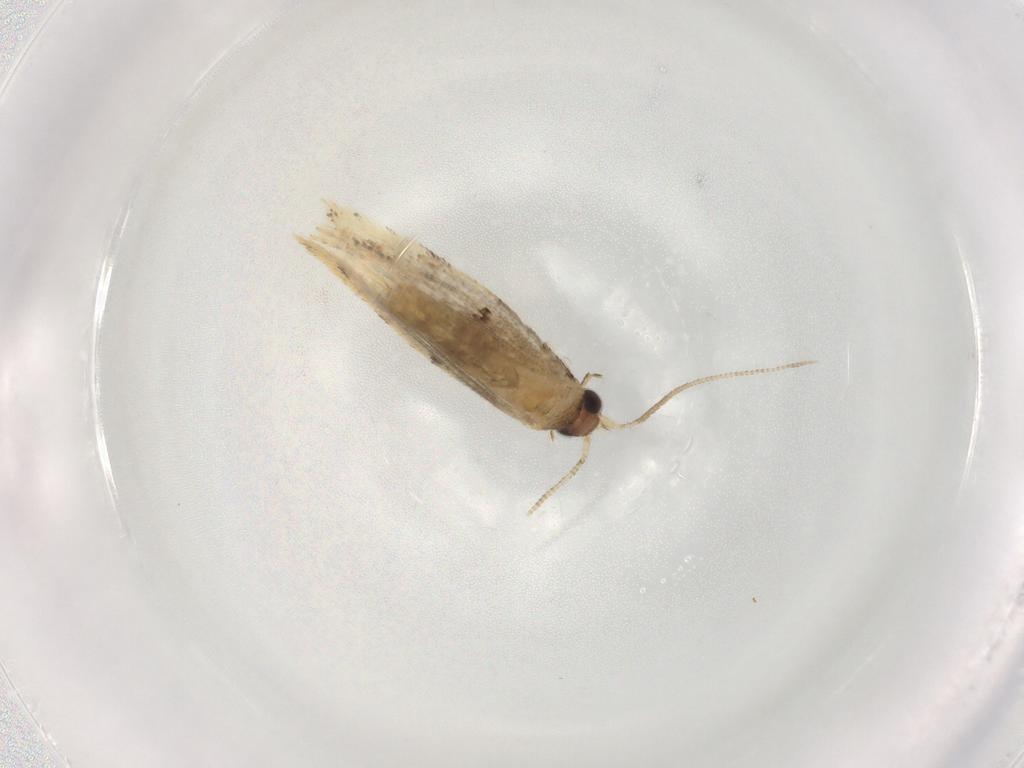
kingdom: Animalia
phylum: Arthropoda
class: Insecta
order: Lepidoptera
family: Tineidae
